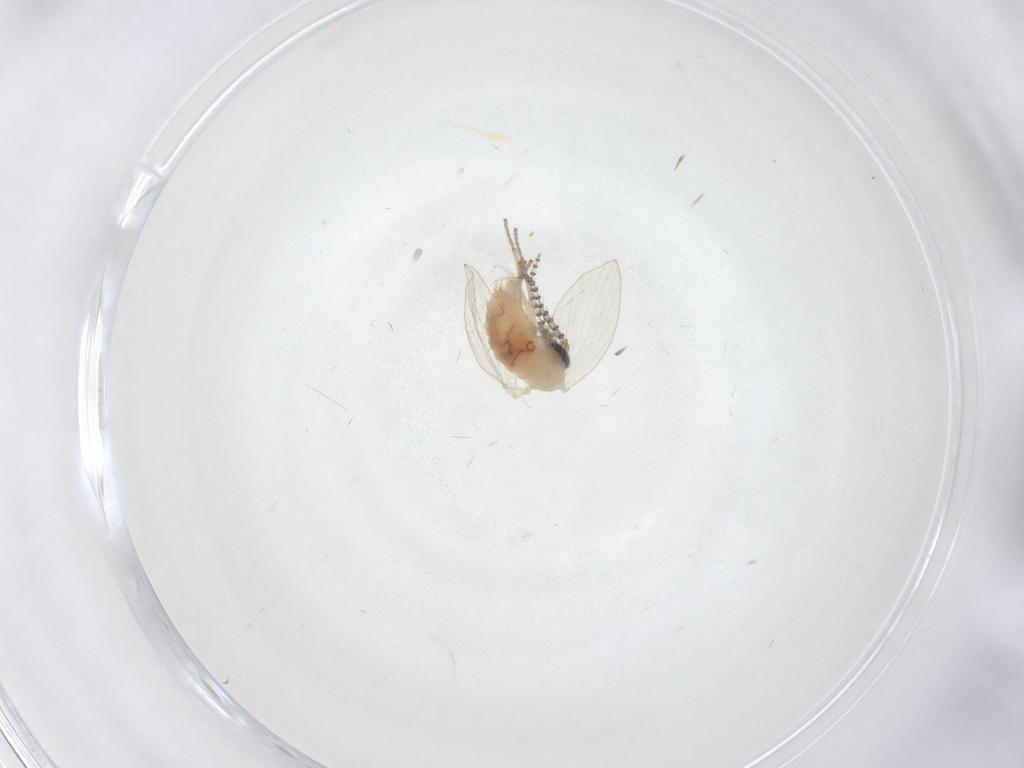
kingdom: Animalia
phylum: Arthropoda
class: Insecta
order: Diptera
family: Psychodidae
